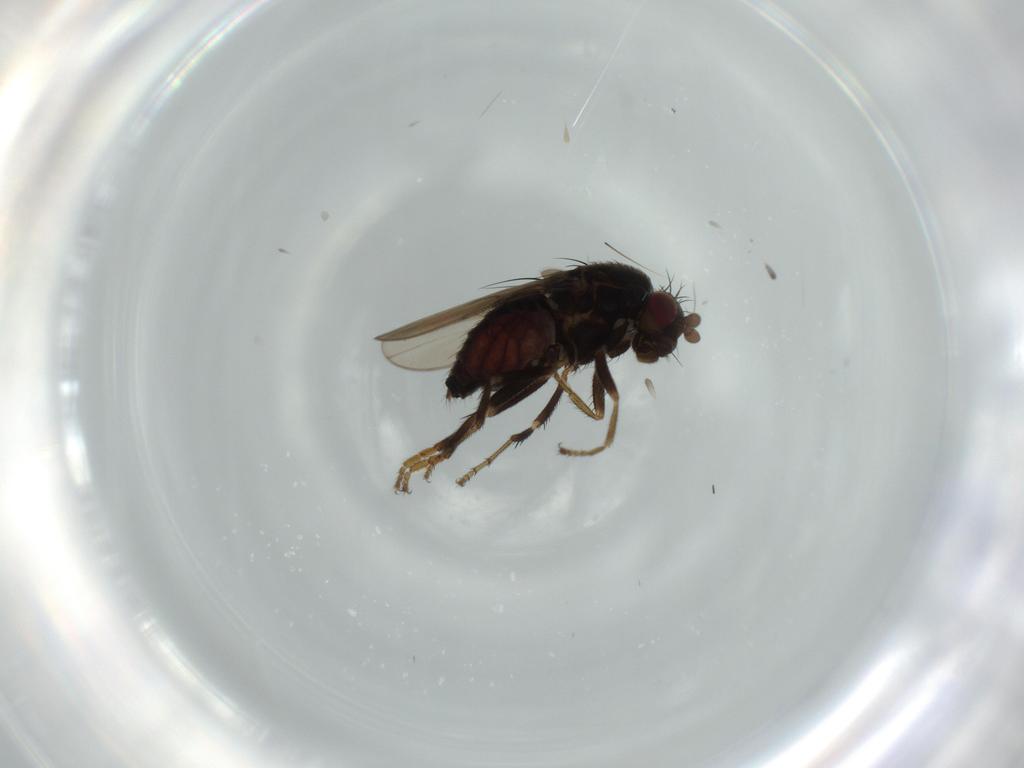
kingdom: Animalia
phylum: Arthropoda
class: Insecta
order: Diptera
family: Sphaeroceridae
